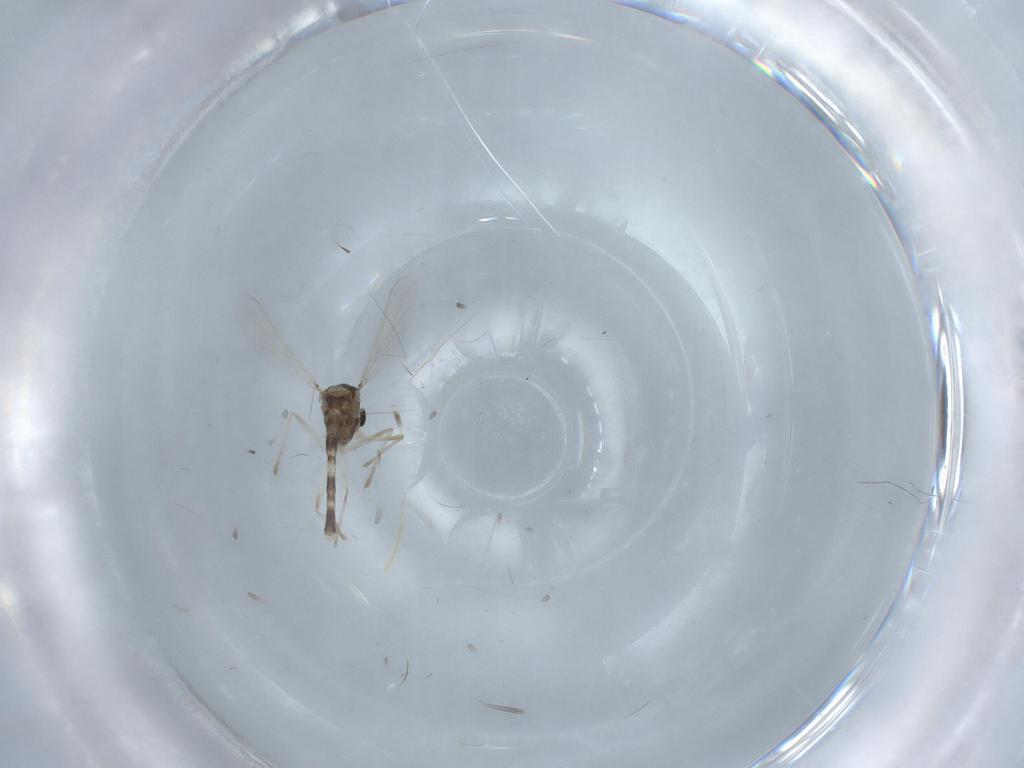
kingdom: Animalia
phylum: Arthropoda
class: Insecta
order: Diptera
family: Chironomidae
